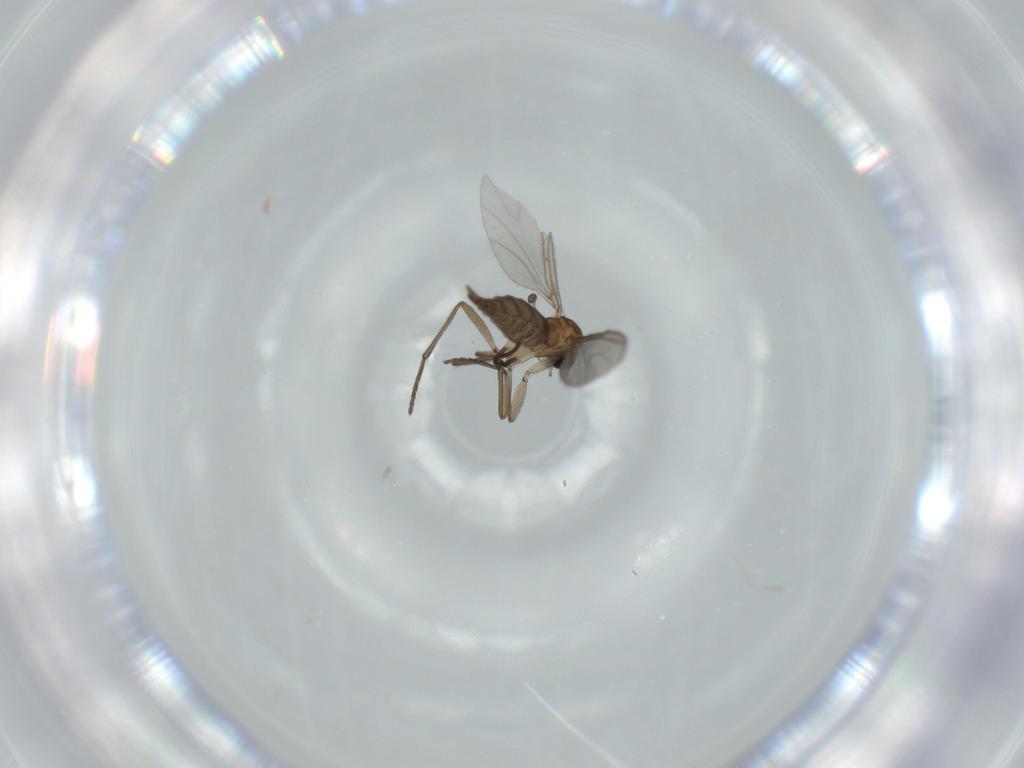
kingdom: Animalia
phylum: Arthropoda
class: Insecta
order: Diptera
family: Sciaridae
